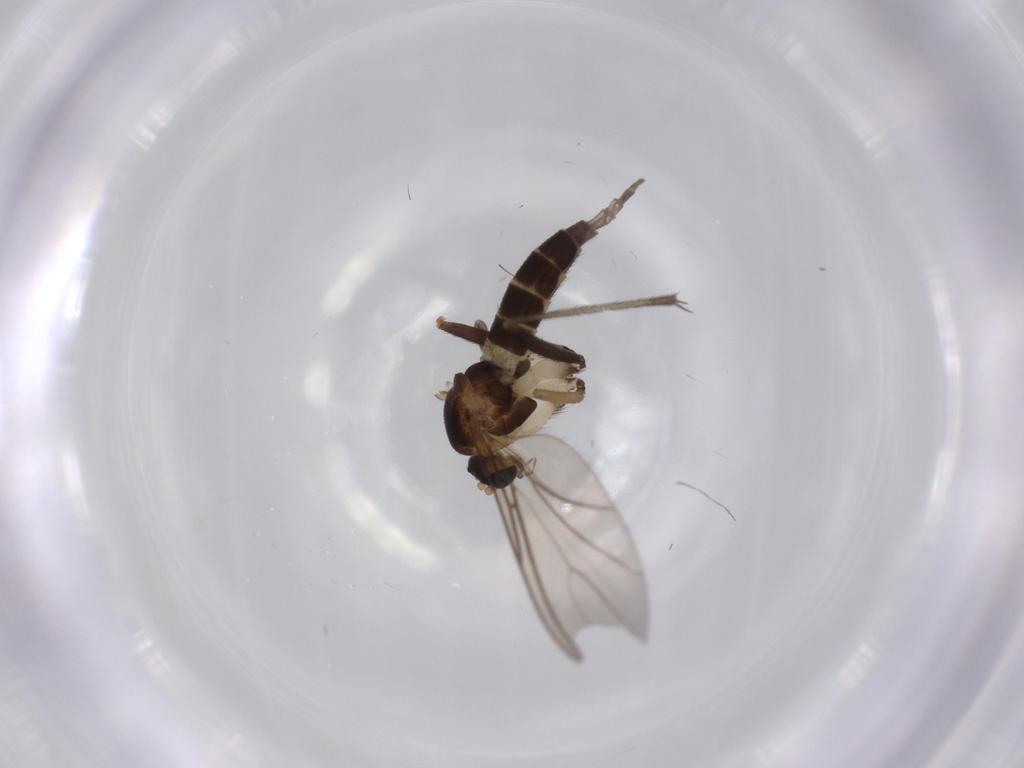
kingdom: Animalia
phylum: Arthropoda
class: Insecta
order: Diptera
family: Sciaridae
